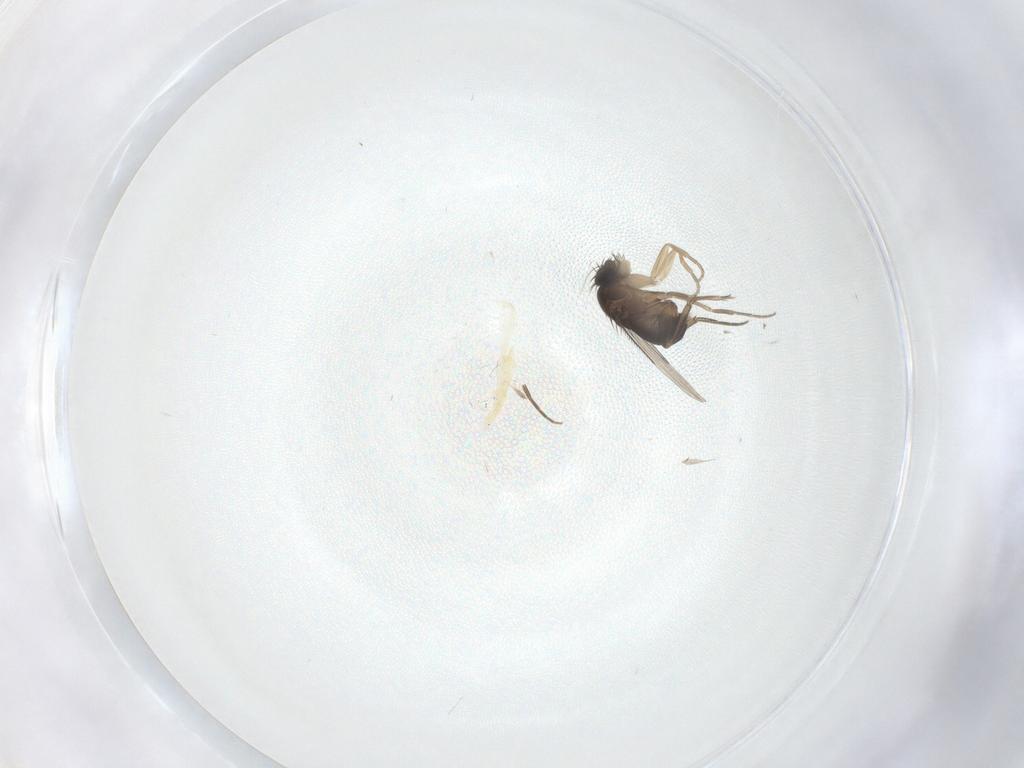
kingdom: Animalia
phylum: Arthropoda
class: Insecta
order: Diptera
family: Phoridae
